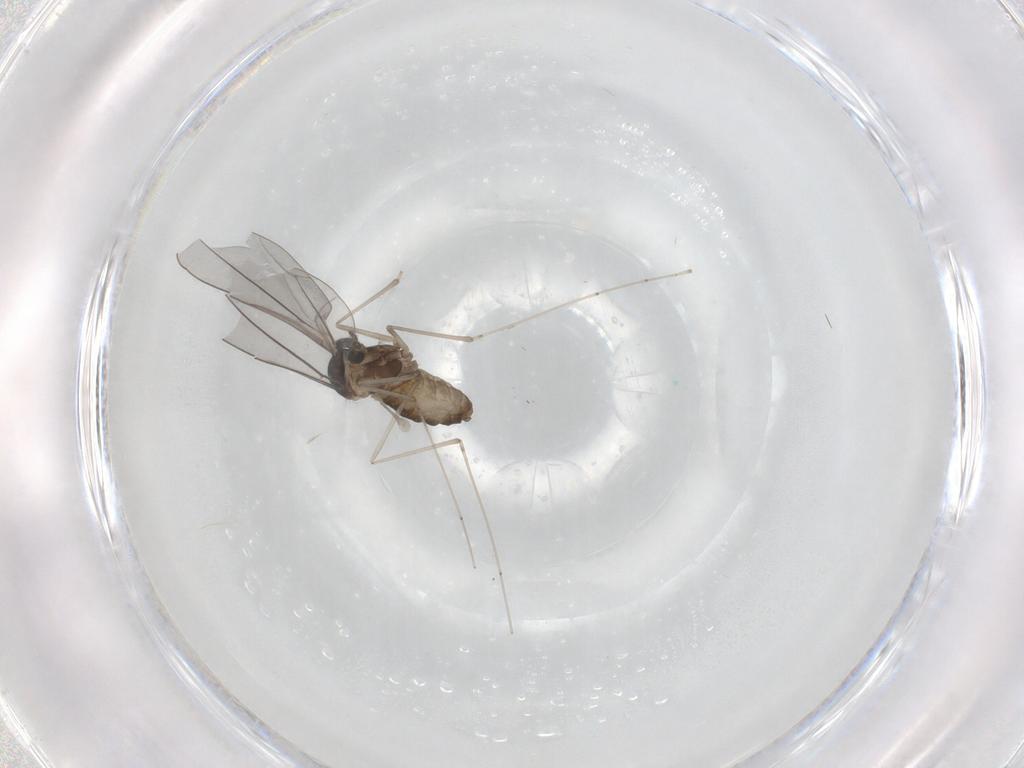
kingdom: Animalia
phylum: Arthropoda
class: Insecta
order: Diptera
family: Cecidomyiidae
